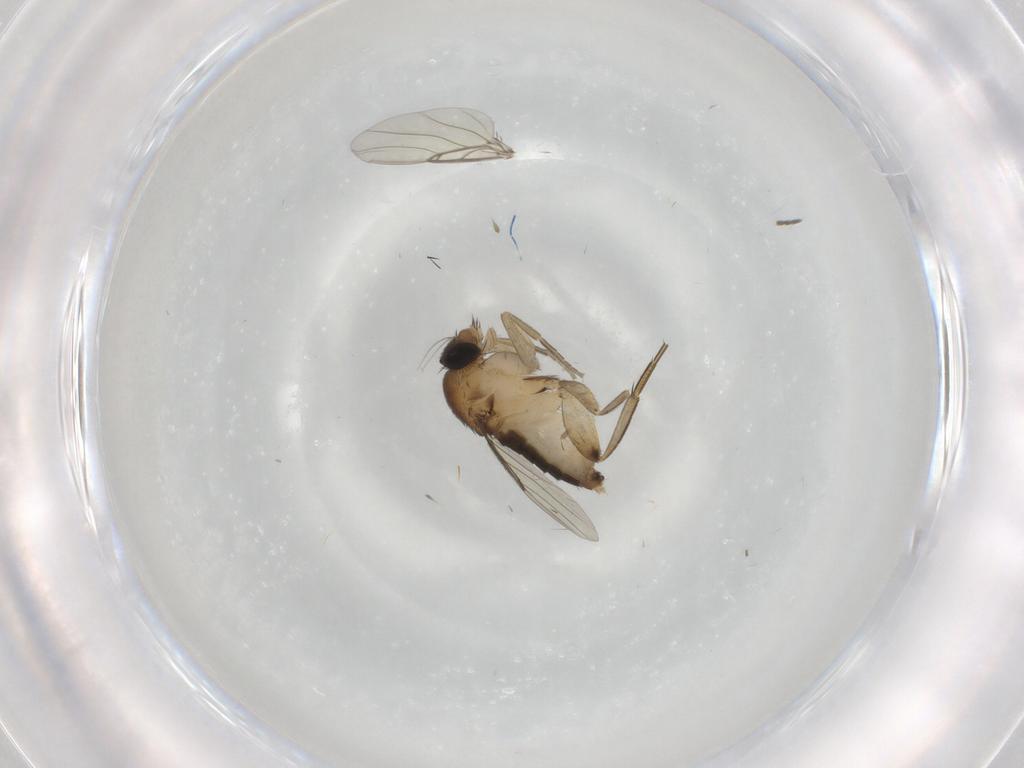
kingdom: Animalia
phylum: Arthropoda
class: Insecta
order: Diptera
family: Phoridae
